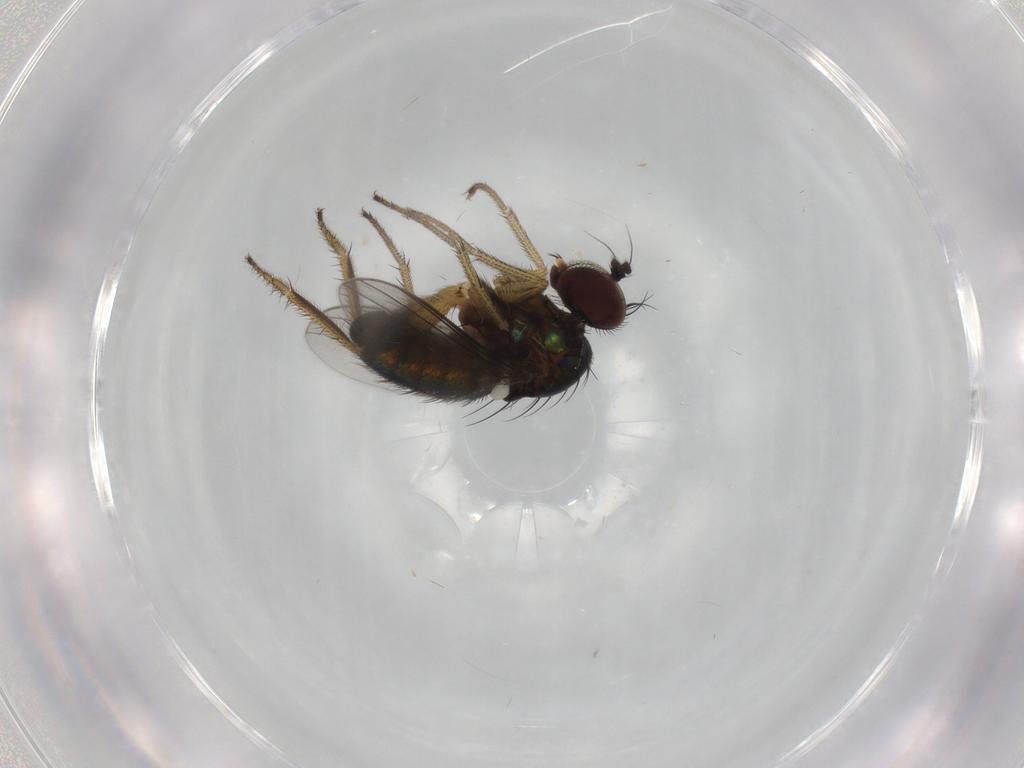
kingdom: Animalia
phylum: Arthropoda
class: Insecta
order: Diptera
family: Dolichopodidae
